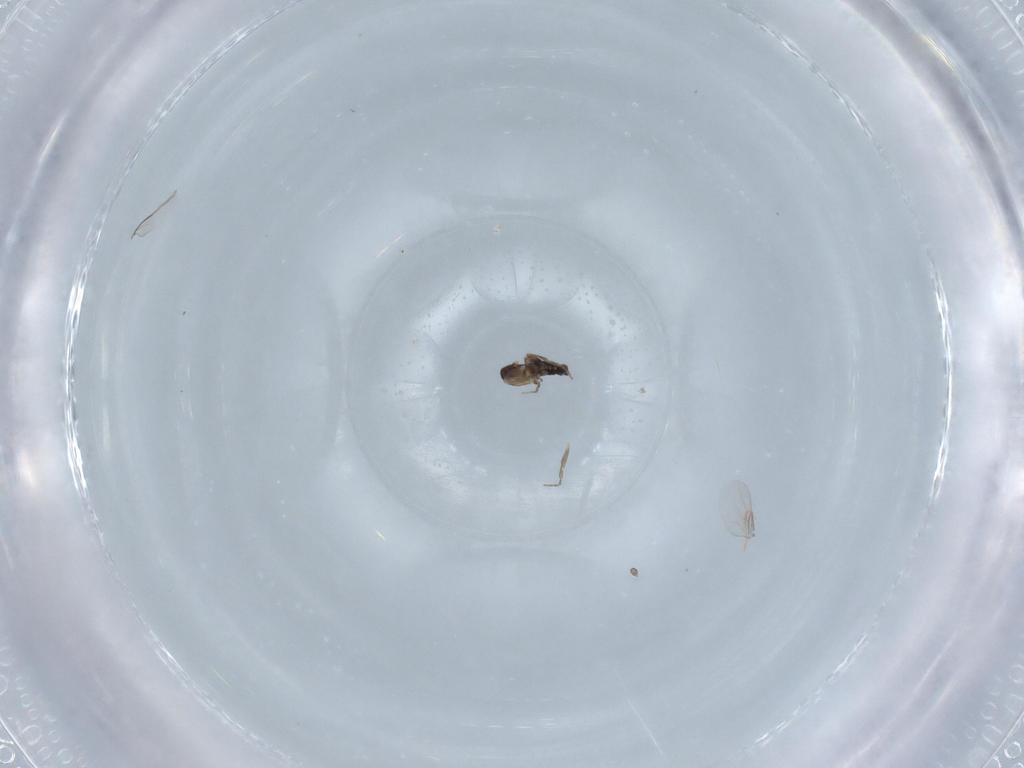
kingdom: Animalia
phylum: Arthropoda
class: Insecta
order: Diptera
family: Phoridae
